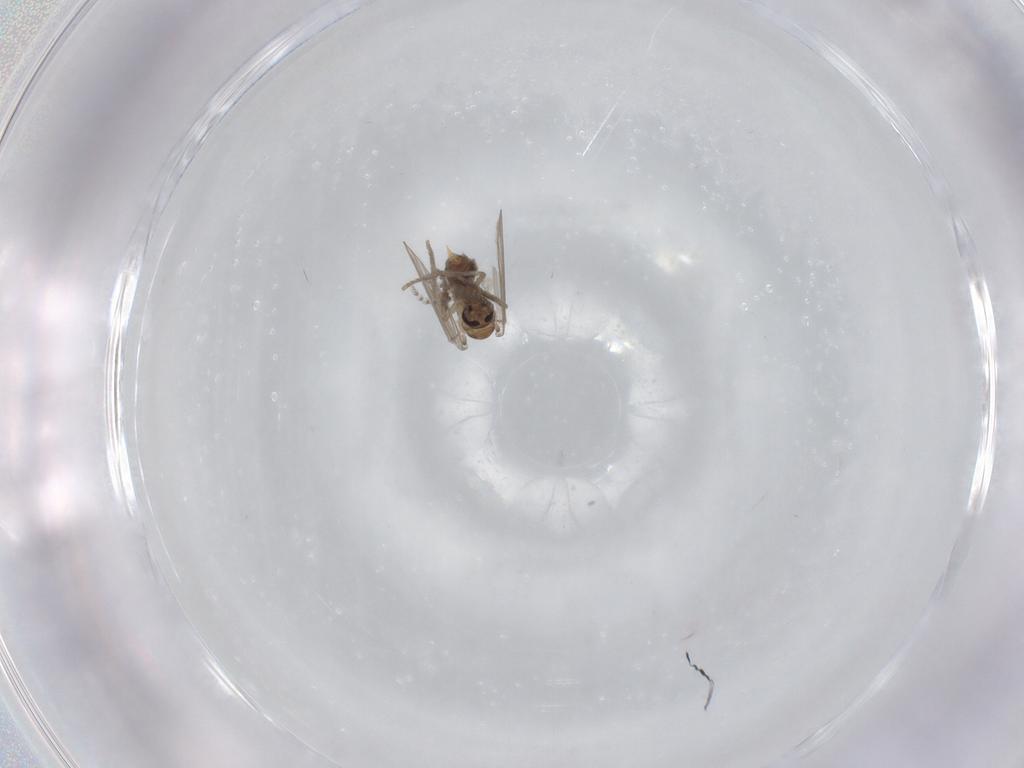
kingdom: Animalia
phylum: Arthropoda
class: Insecta
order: Diptera
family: Psychodidae
